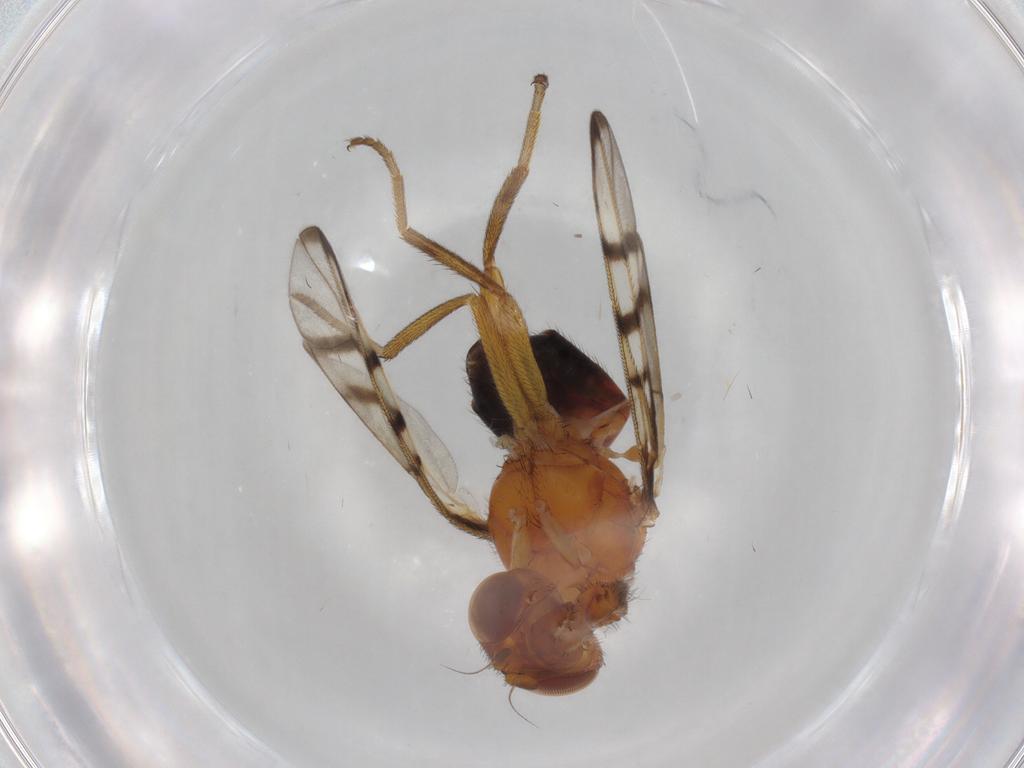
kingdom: Animalia
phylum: Arthropoda
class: Insecta
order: Diptera
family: Platystomatidae
